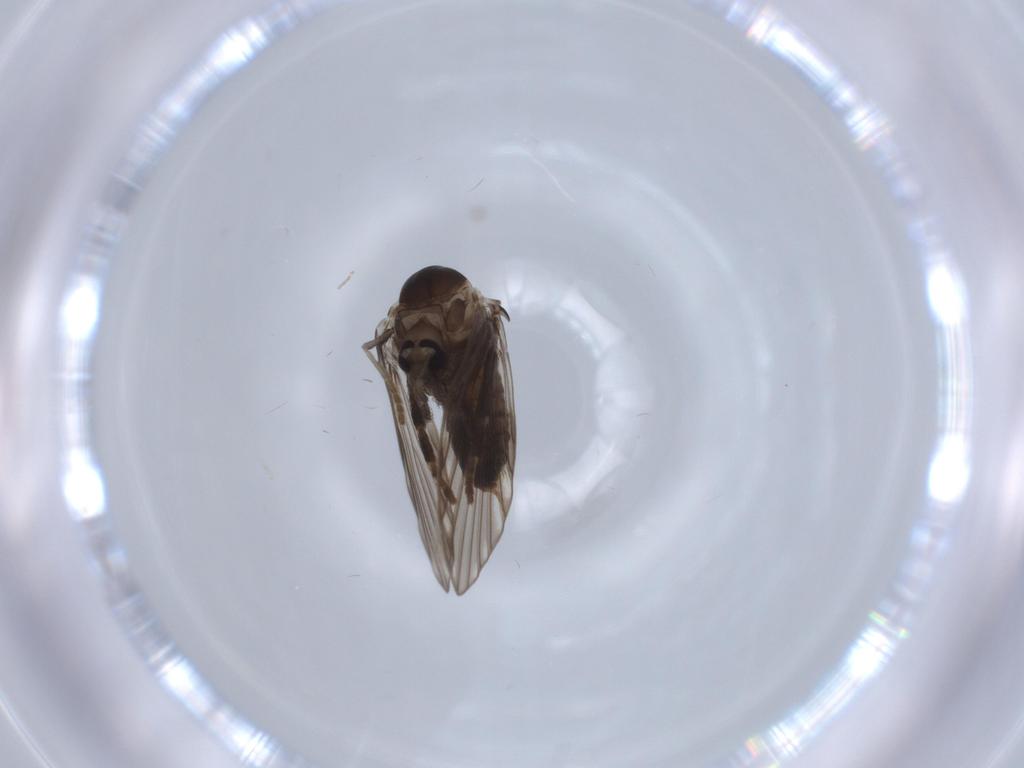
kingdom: Animalia
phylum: Arthropoda
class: Insecta
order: Diptera
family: Psychodidae
